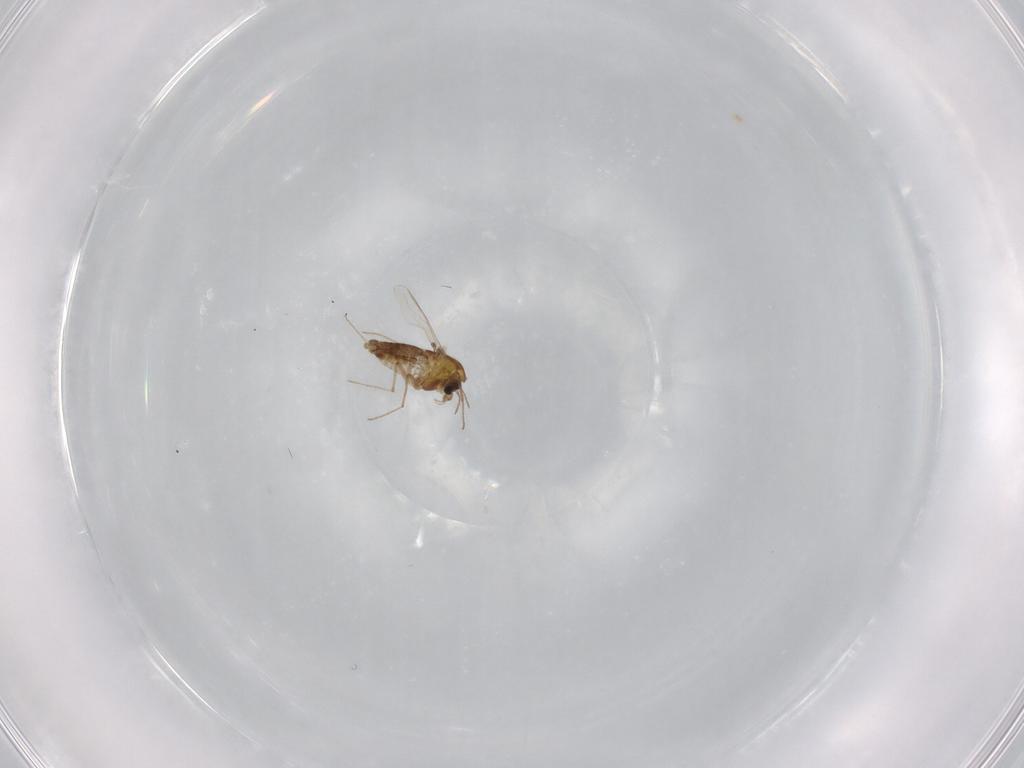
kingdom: Animalia
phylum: Arthropoda
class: Insecta
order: Diptera
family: Chironomidae
